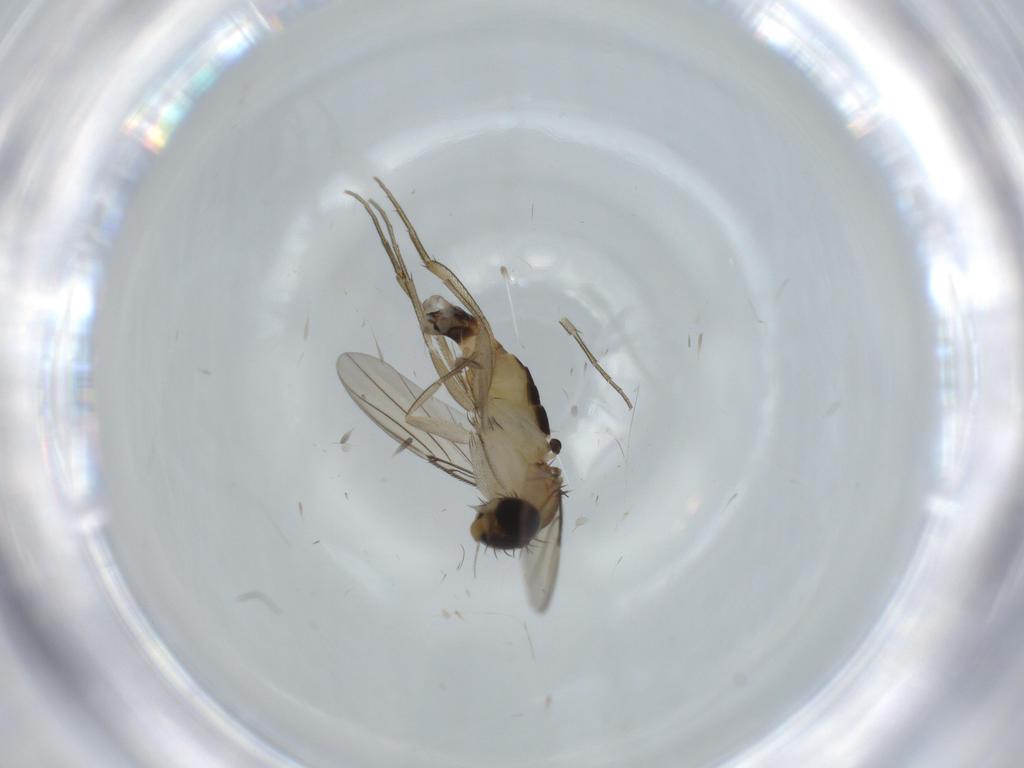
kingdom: Animalia
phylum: Arthropoda
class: Insecta
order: Diptera
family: Phoridae
